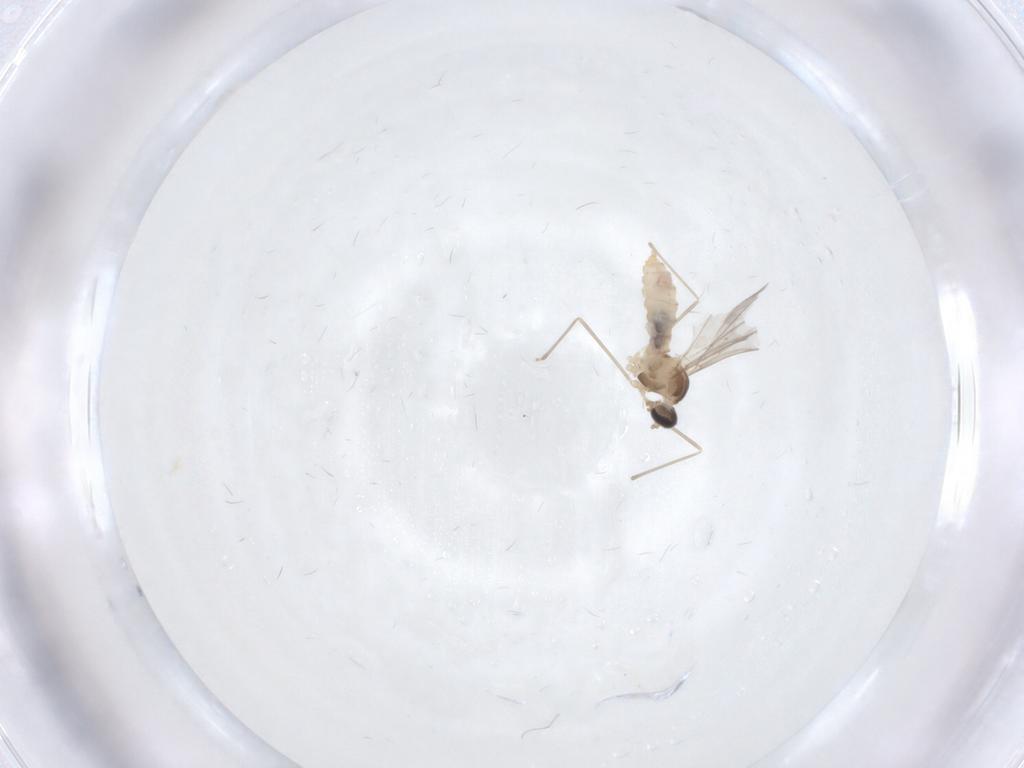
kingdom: Animalia
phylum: Arthropoda
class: Insecta
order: Diptera
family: Cecidomyiidae
